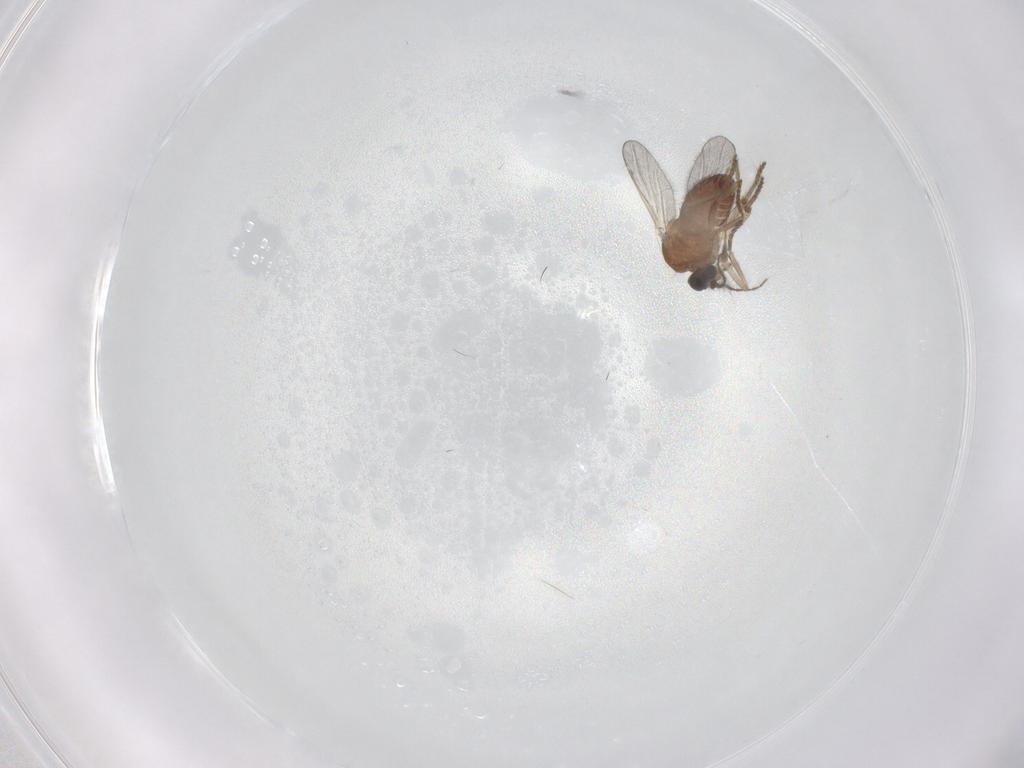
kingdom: Animalia
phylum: Arthropoda
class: Insecta
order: Diptera
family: Ceratopogonidae
